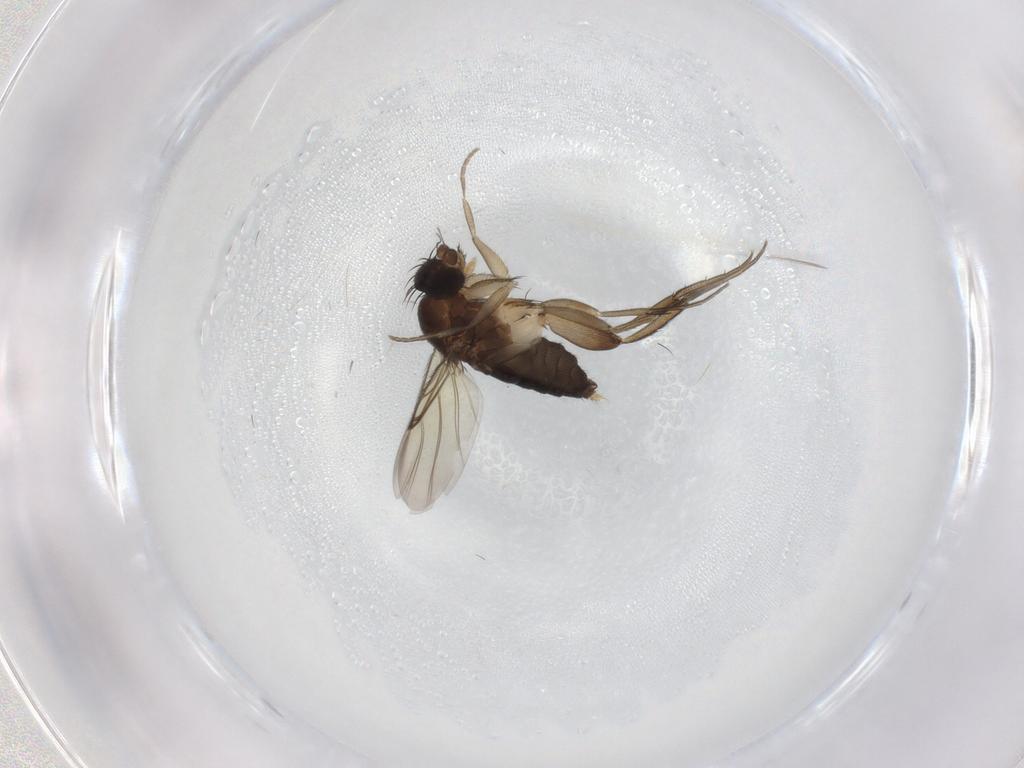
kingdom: Animalia
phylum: Arthropoda
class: Insecta
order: Diptera
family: Phoridae
